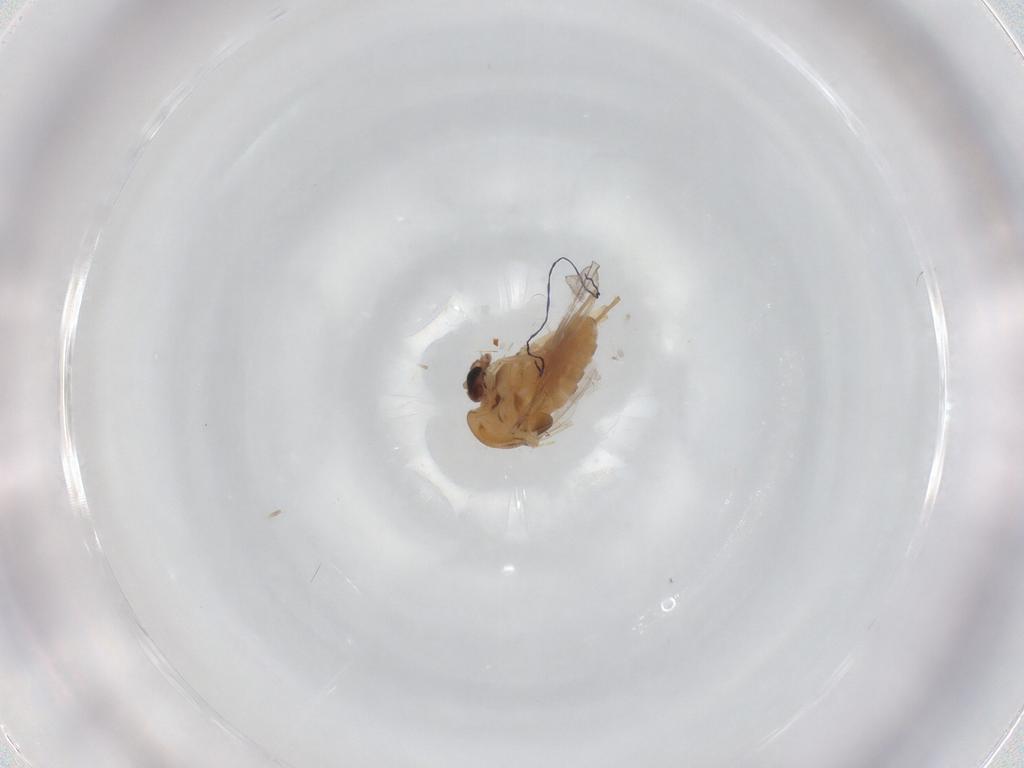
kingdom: Animalia
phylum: Arthropoda
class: Insecta
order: Diptera
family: Chironomidae
